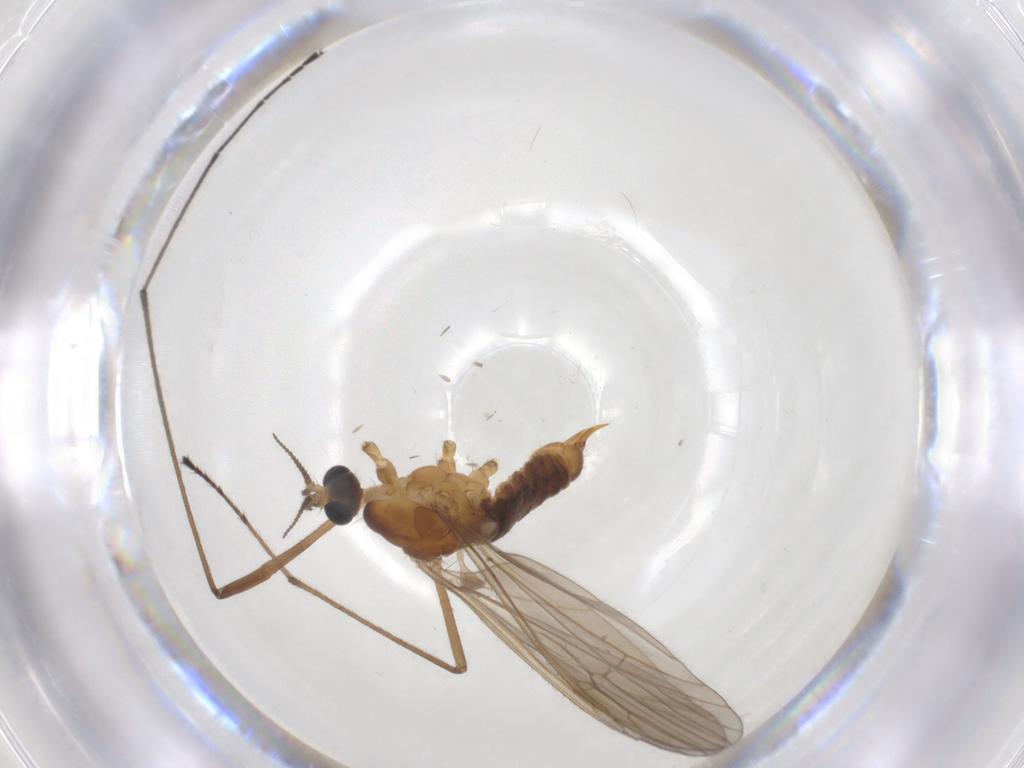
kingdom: Animalia
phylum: Arthropoda
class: Insecta
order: Diptera
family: Limoniidae
